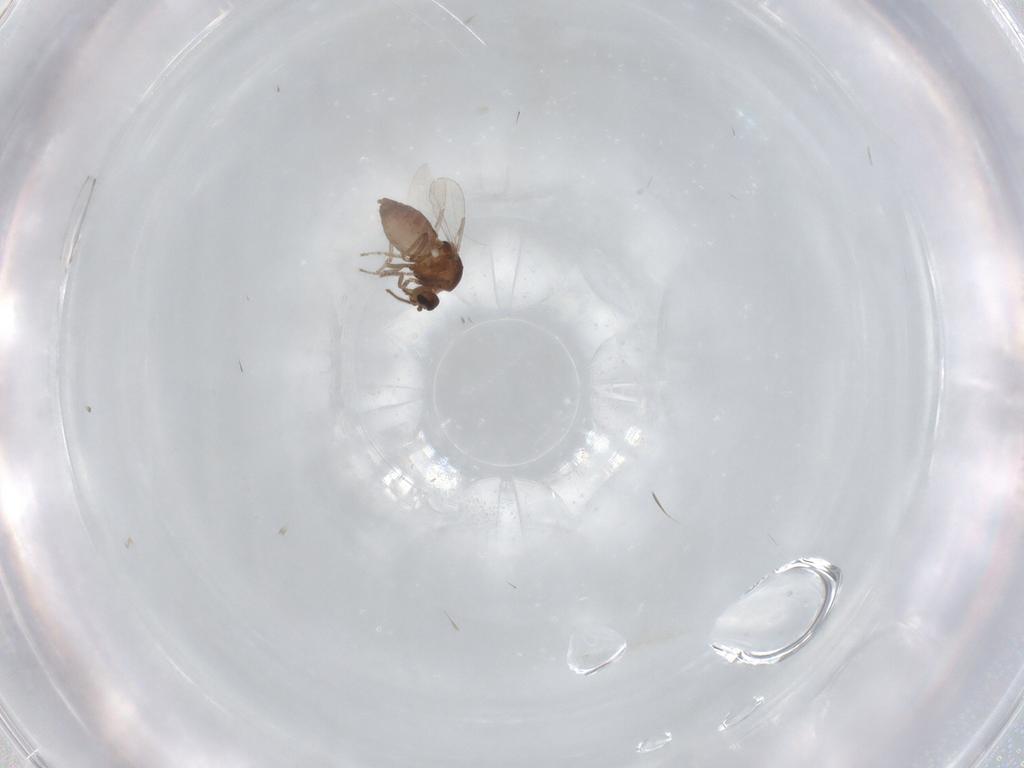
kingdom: Animalia
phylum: Arthropoda
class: Insecta
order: Diptera
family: Ceratopogonidae
